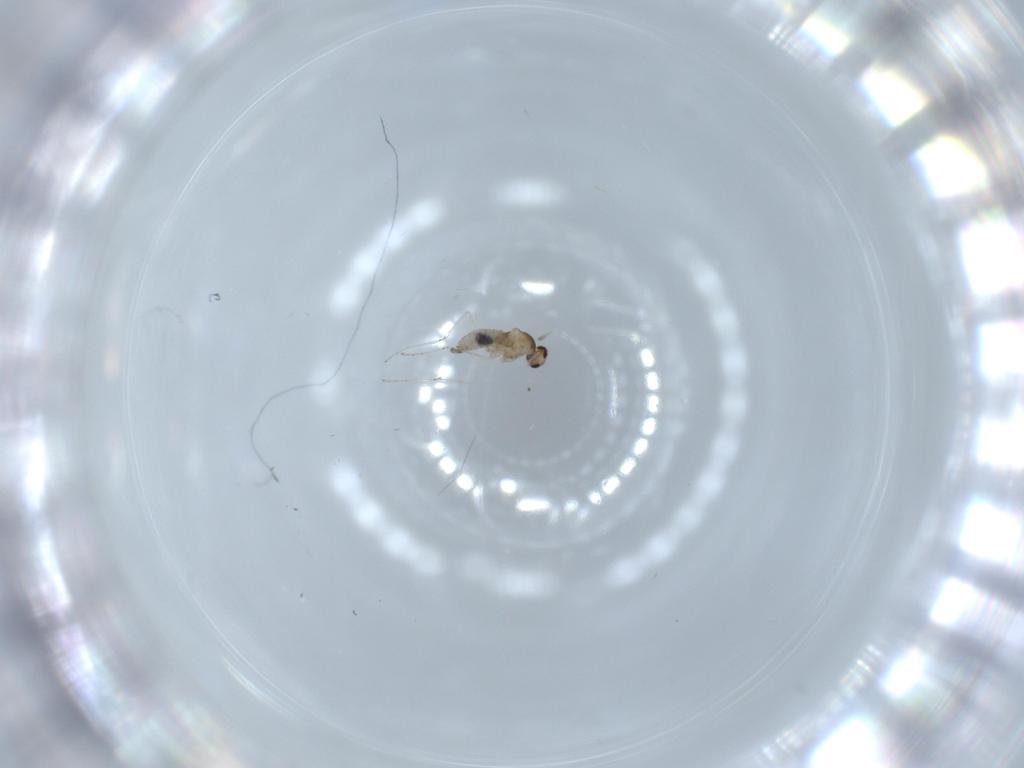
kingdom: Animalia
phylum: Arthropoda
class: Insecta
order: Diptera
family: Cecidomyiidae
